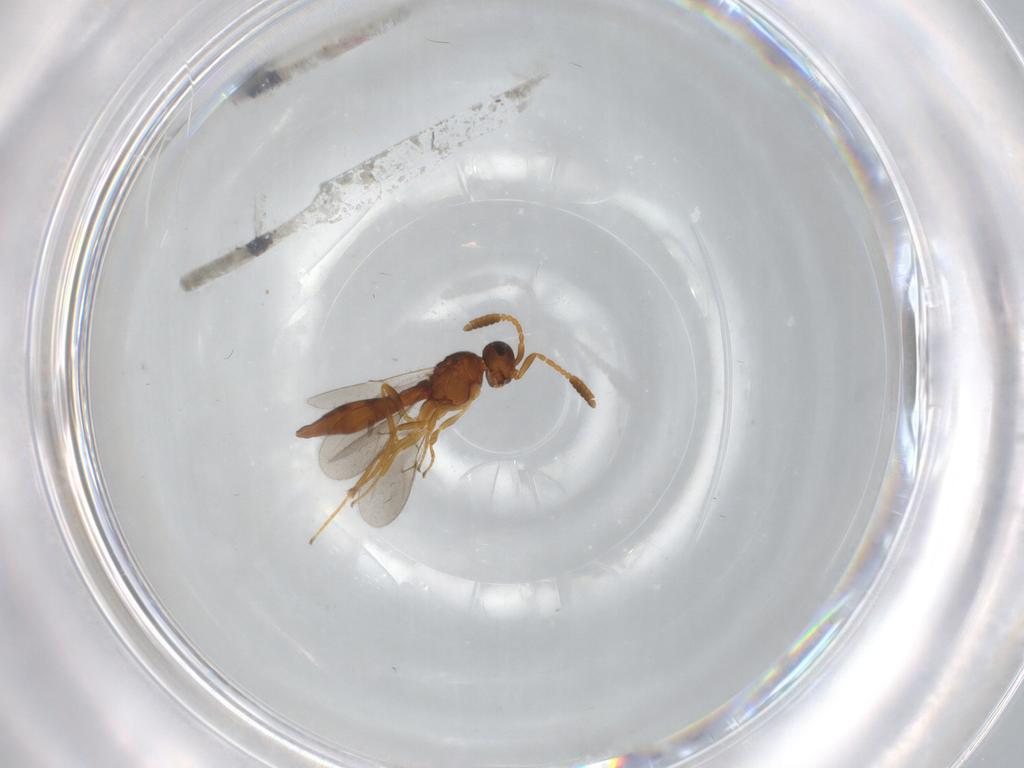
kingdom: Animalia
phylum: Arthropoda
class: Insecta
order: Hymenoptera
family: Scelionidae
